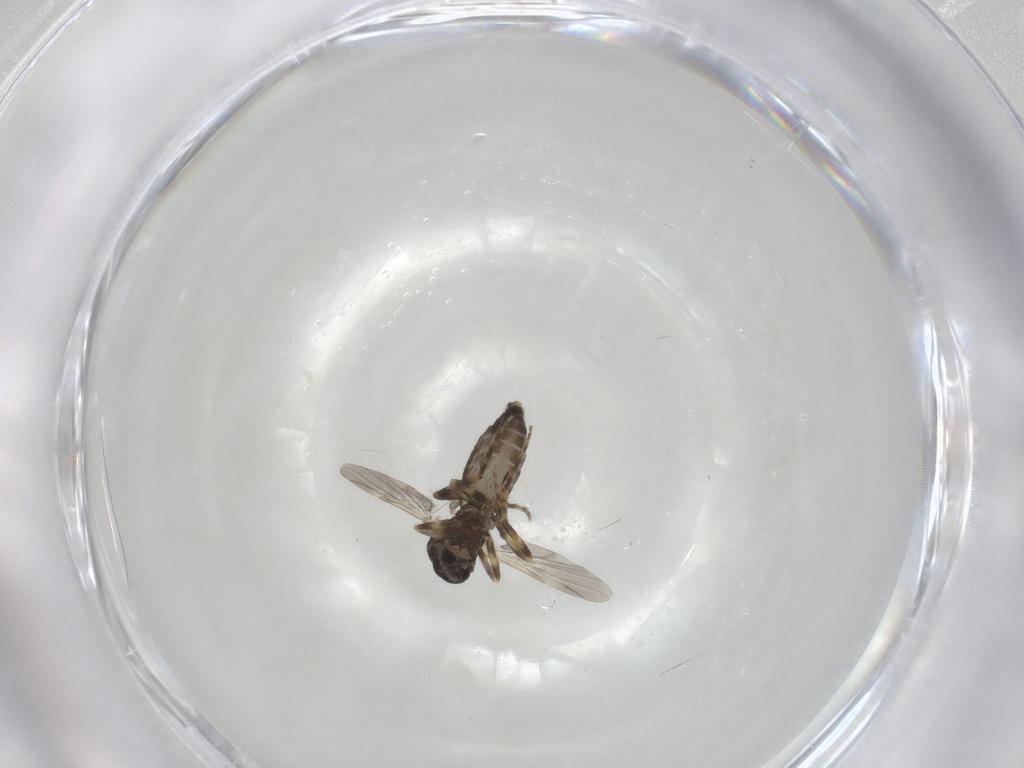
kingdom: Animalia
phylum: Arthropoda
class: Insecta
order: Diptera
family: Ceratopogonidae
